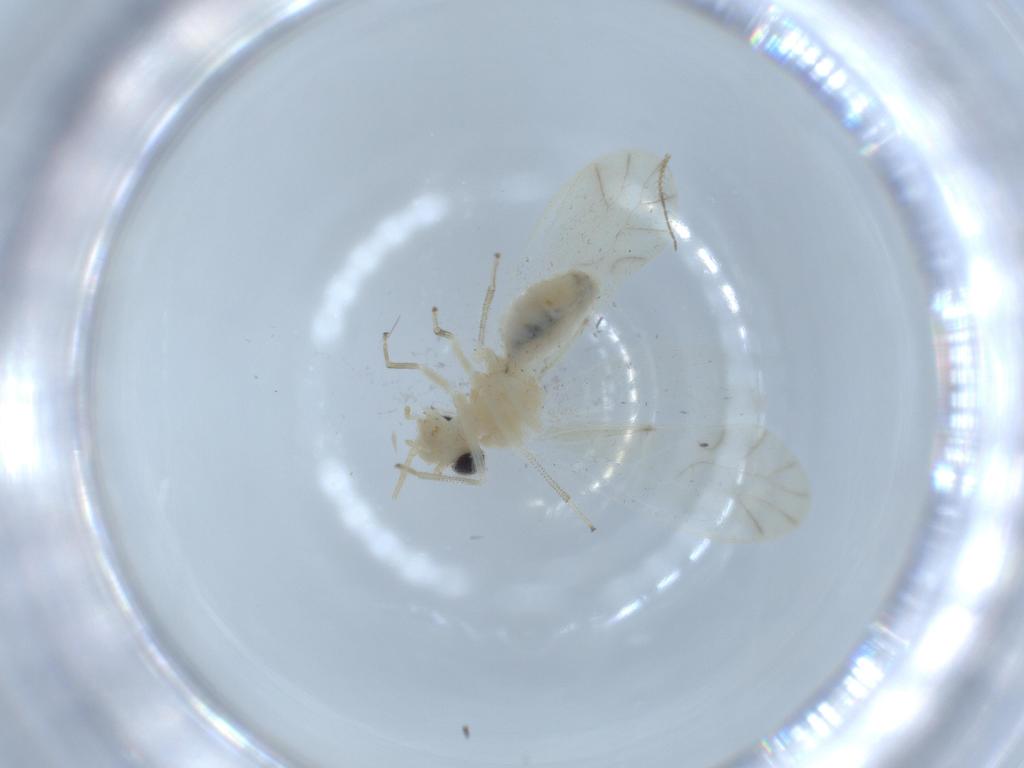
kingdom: Animalia
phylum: Arthropoda
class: Insecta
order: Psocodea
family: Caeciliusidae
